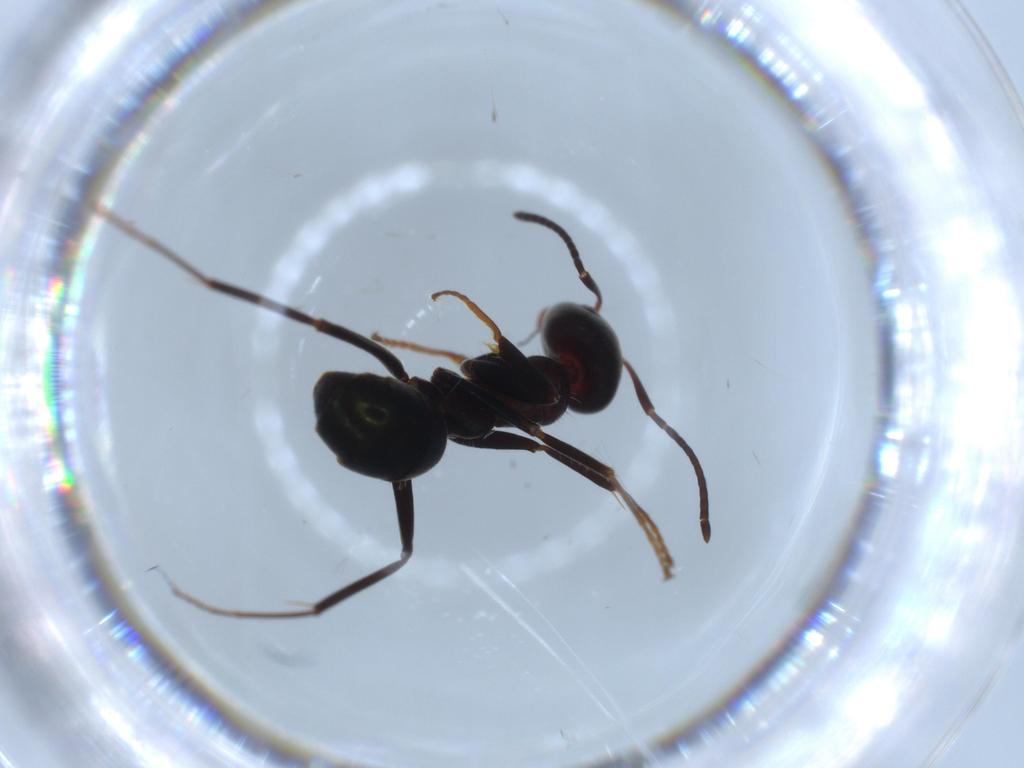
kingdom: Animalia
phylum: Arthropoda
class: Insecta
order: Hymenoptera
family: Formicidae
